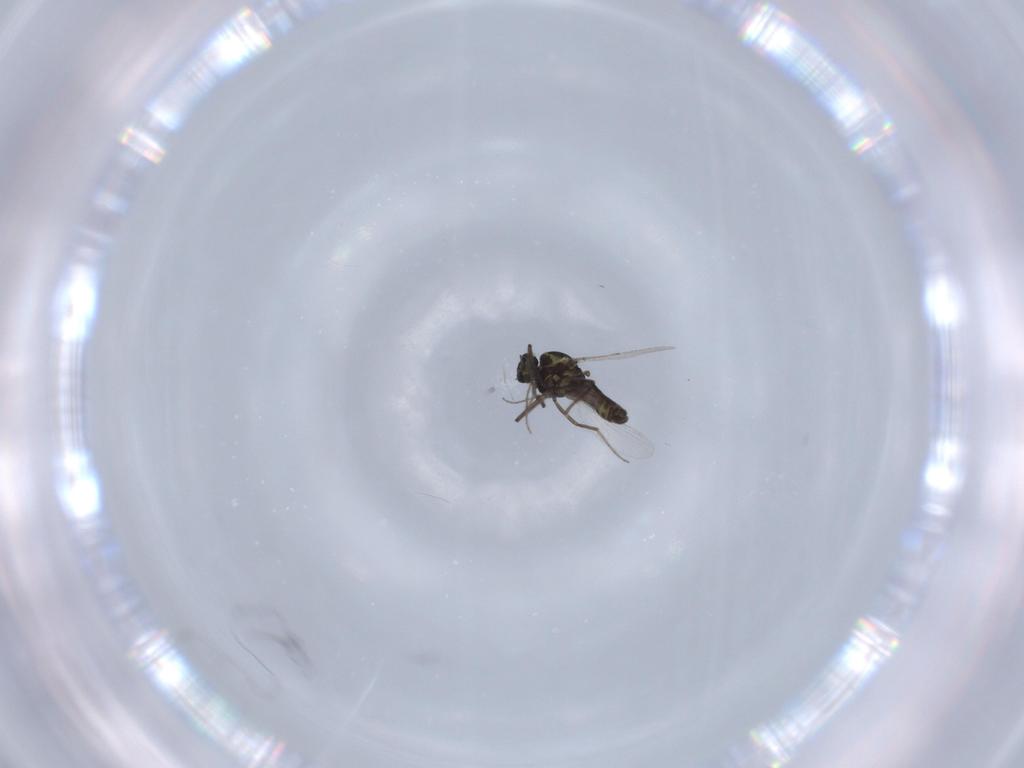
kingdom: Animalia
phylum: Arthropoda
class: Insecta
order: Diptera
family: Ceratopogonidae
